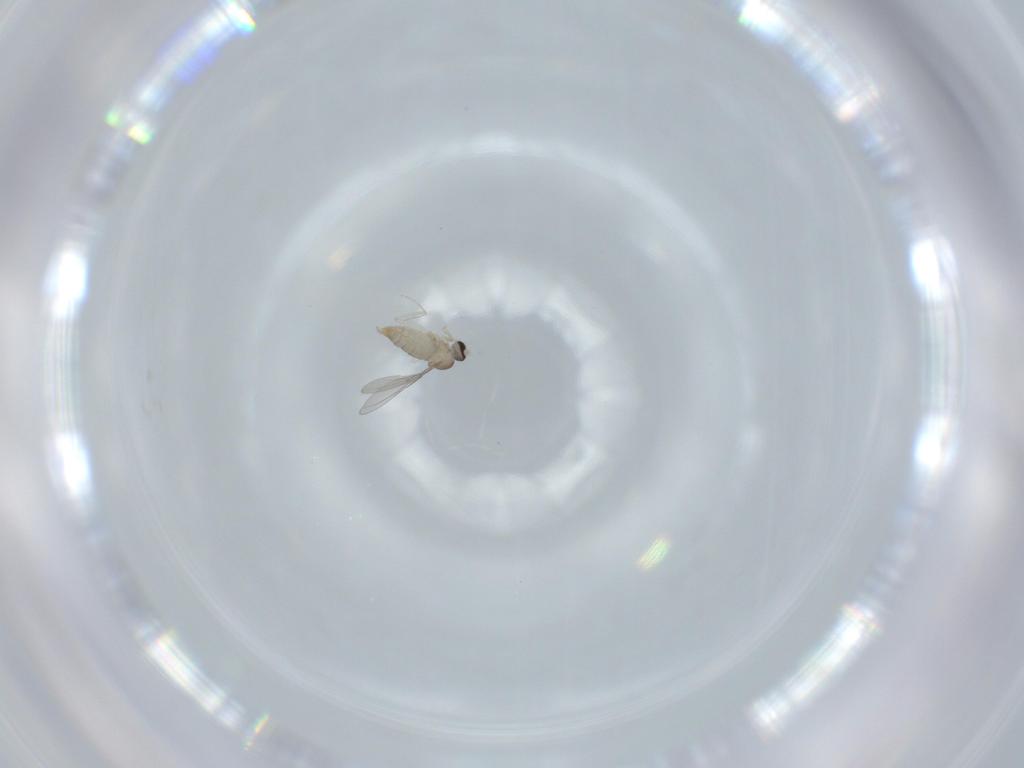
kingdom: Animalia
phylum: Arthropoda
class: Insecta
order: Diptera
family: Cecidomyiidae
